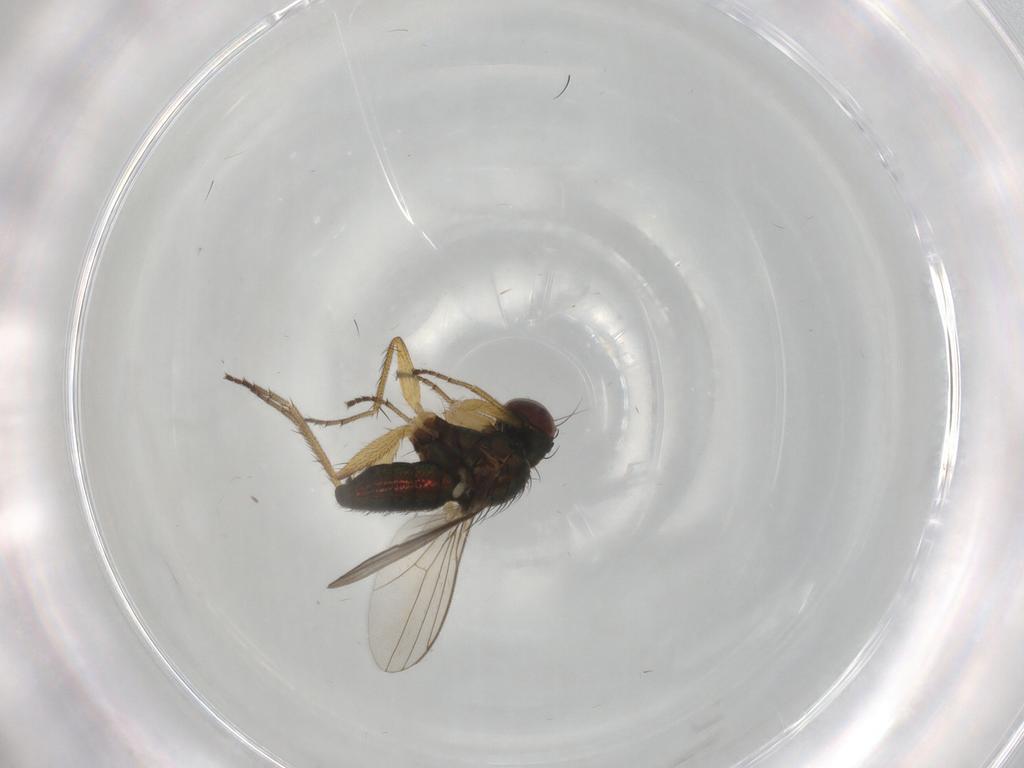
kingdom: Animalia
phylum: Arthropoda
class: Insecta
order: Diptera
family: Hybotidae
